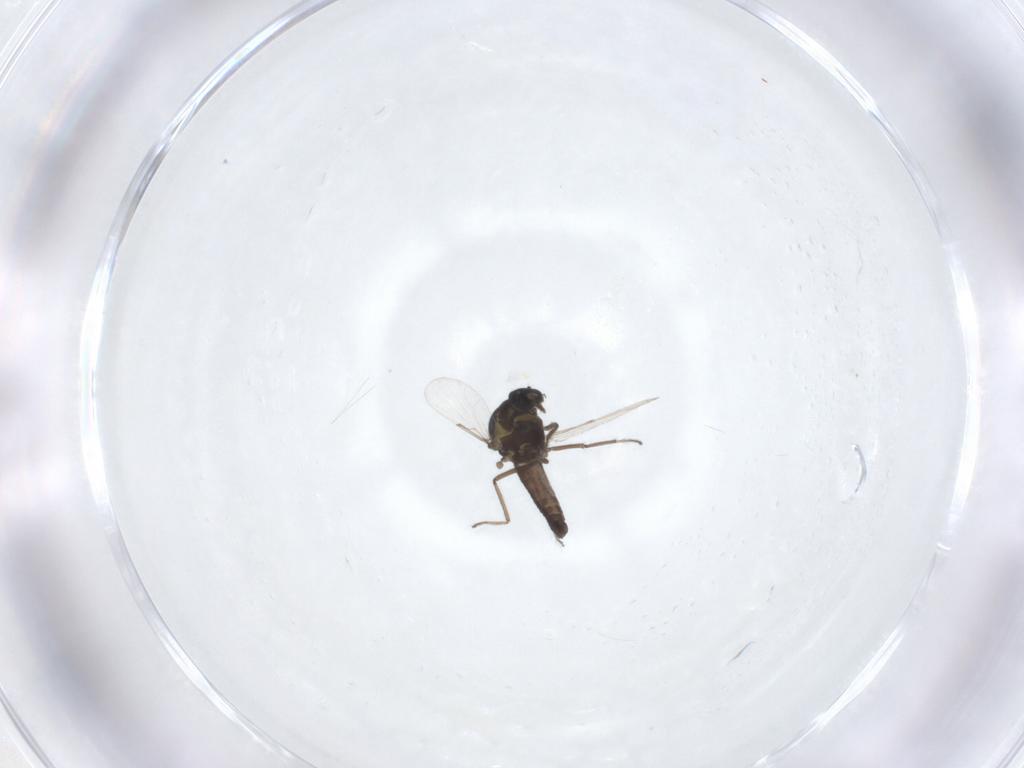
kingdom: Animalia
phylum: Arthropoda
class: Insecta
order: Diptera
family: Ceratopogonidae
